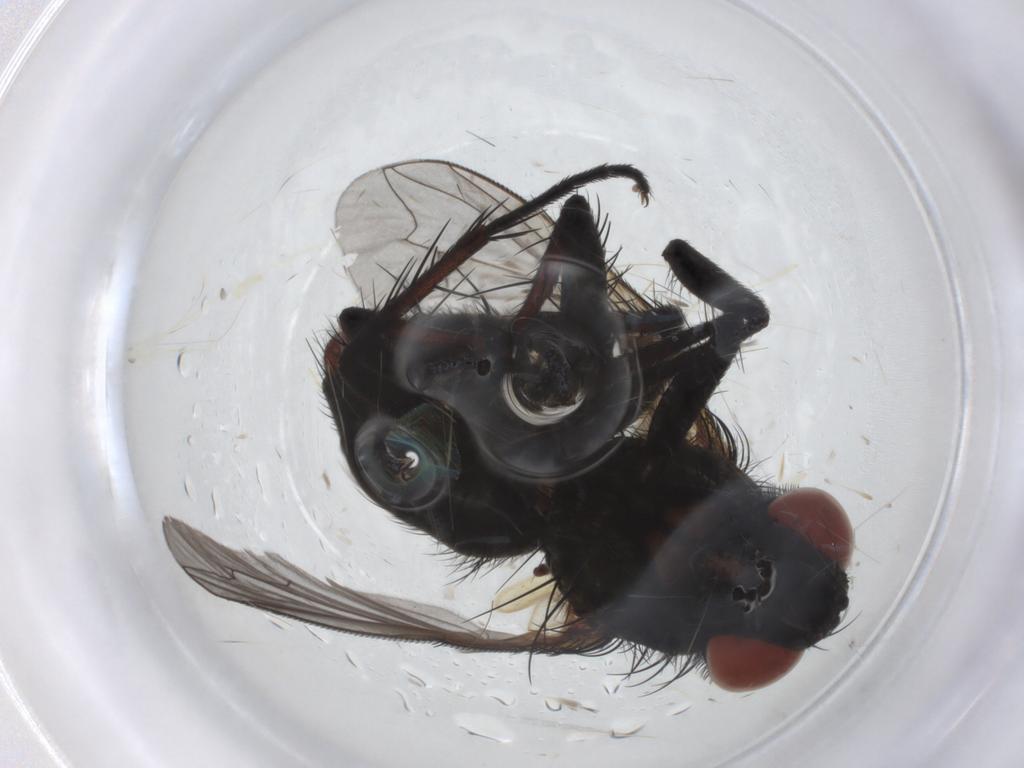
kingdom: Animalia
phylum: Arthropoda
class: Insecta
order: Diptera
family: Sarcophagidae
